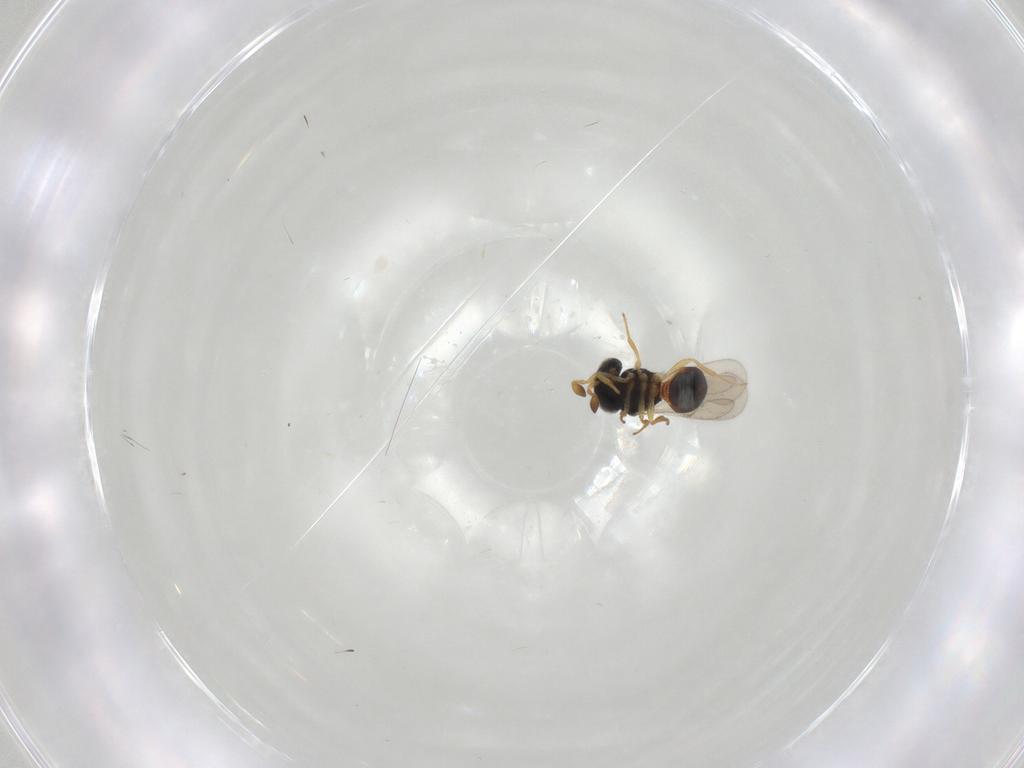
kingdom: Animalia
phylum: Arthropoda
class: Insecta
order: Hymenoptera
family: Scelionidae
